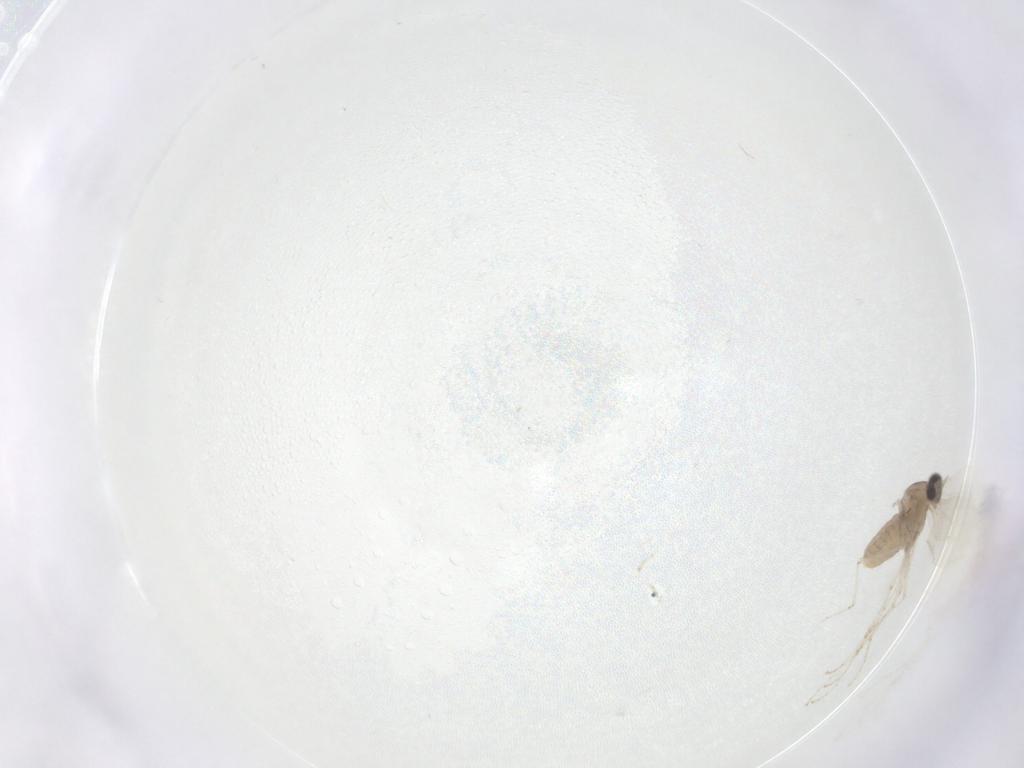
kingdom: Animalia
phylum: Arthropoda
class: Insecta
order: Diptera
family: Cecidomyiidae
